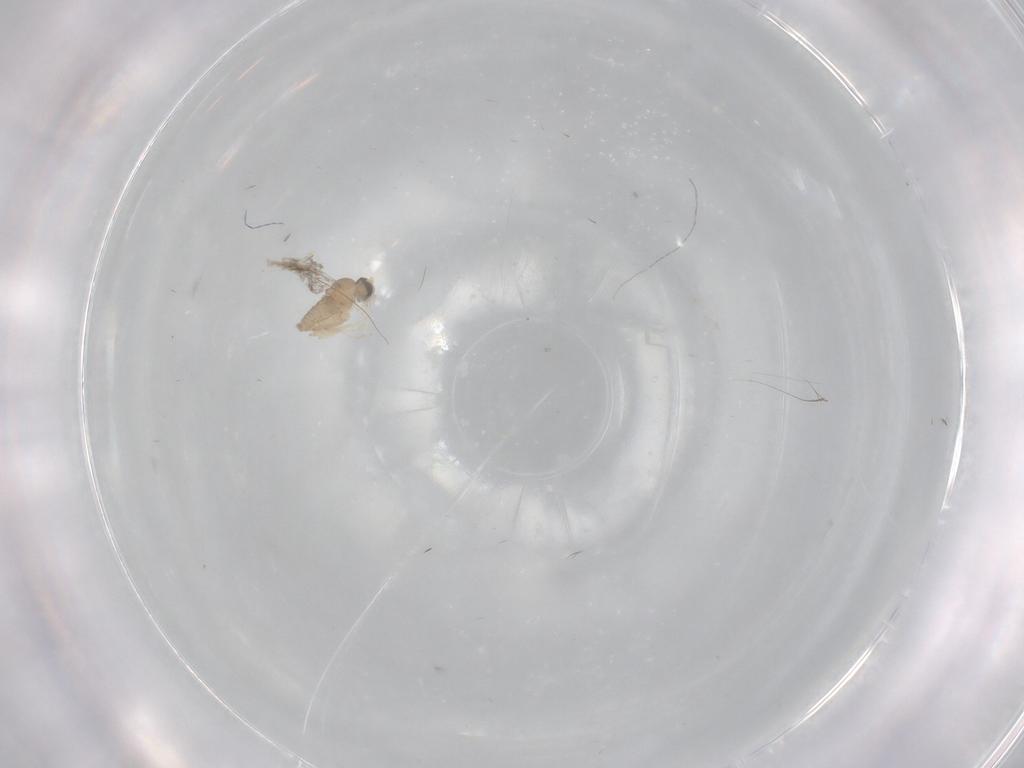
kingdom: Animalia
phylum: Arthropoda
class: Insecta
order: Diptera
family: Cecidomyiidae
